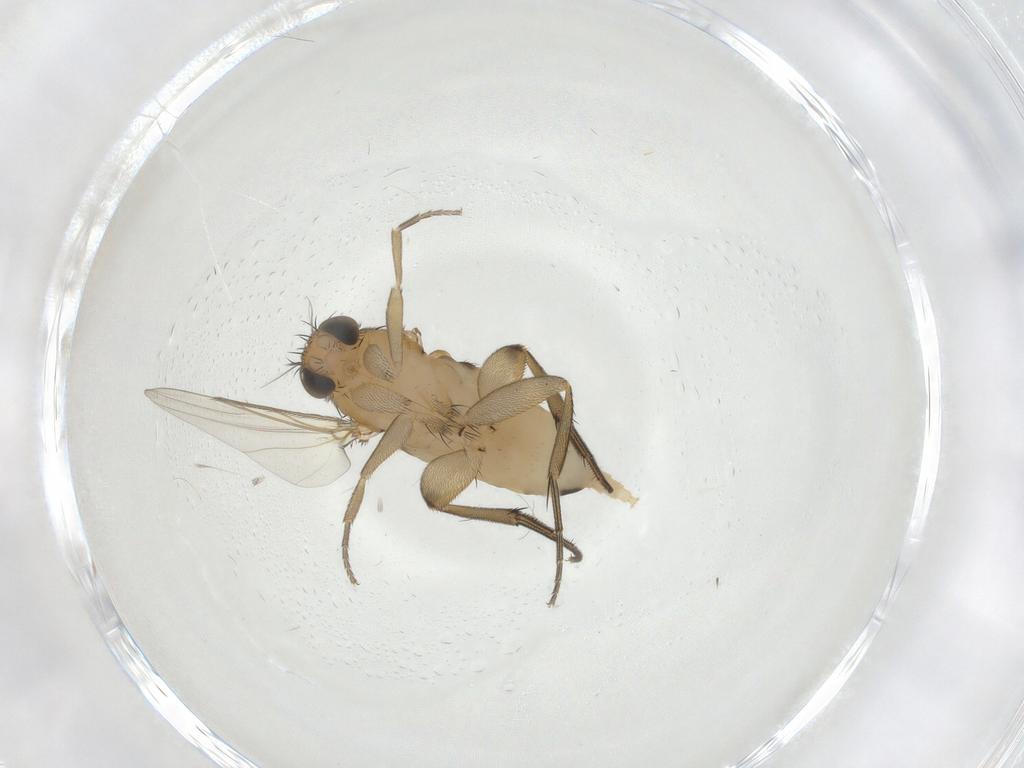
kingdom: Animalia
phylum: Arthropoda
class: Insecta
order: Diptera
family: Phoridae
